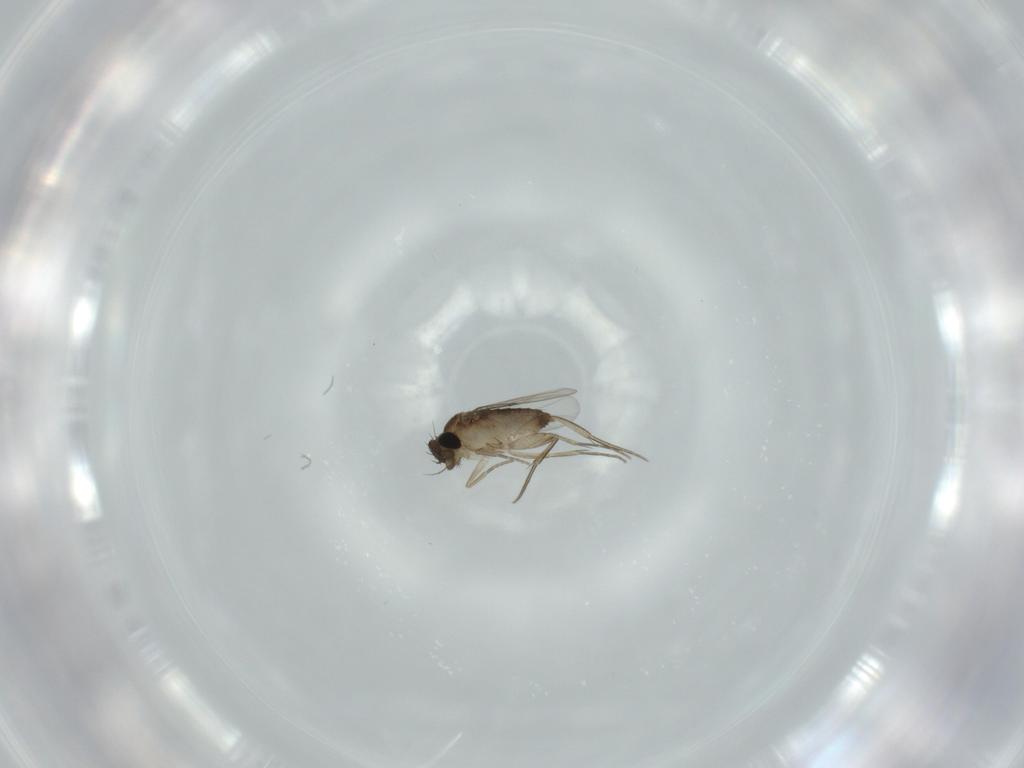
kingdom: Animalia
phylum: Arthropoda
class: Insecta
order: Diptera
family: Phoridae
